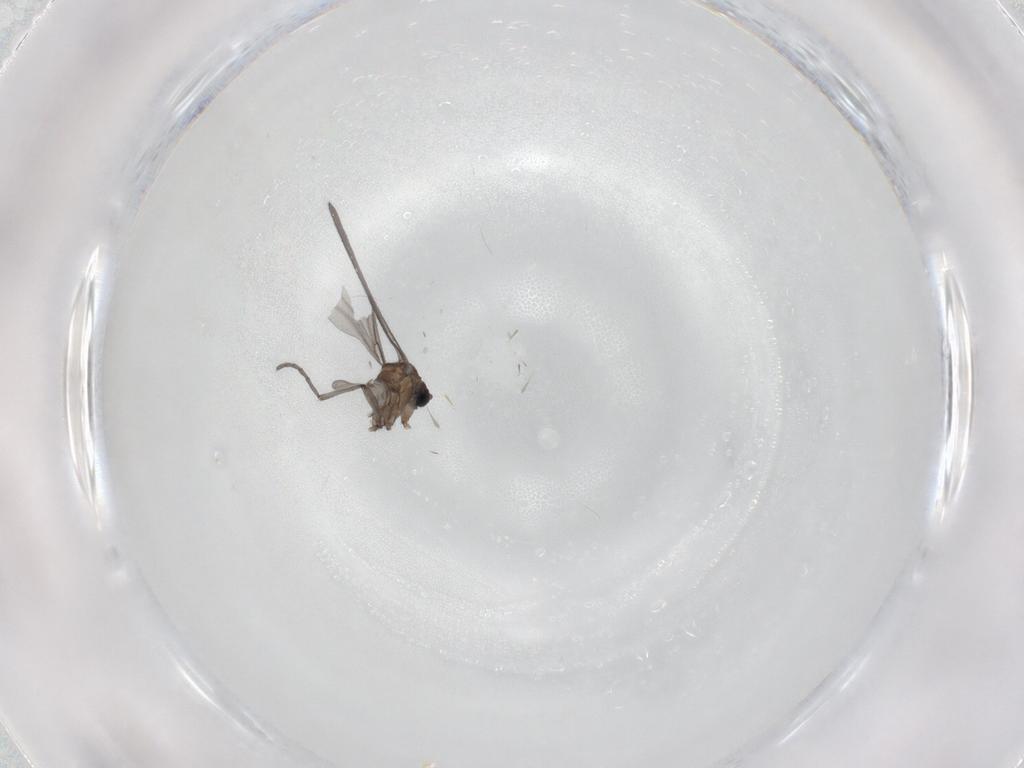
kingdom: Animalia
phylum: Arthropoda
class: Insecta
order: Diptera
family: Sciaridae
